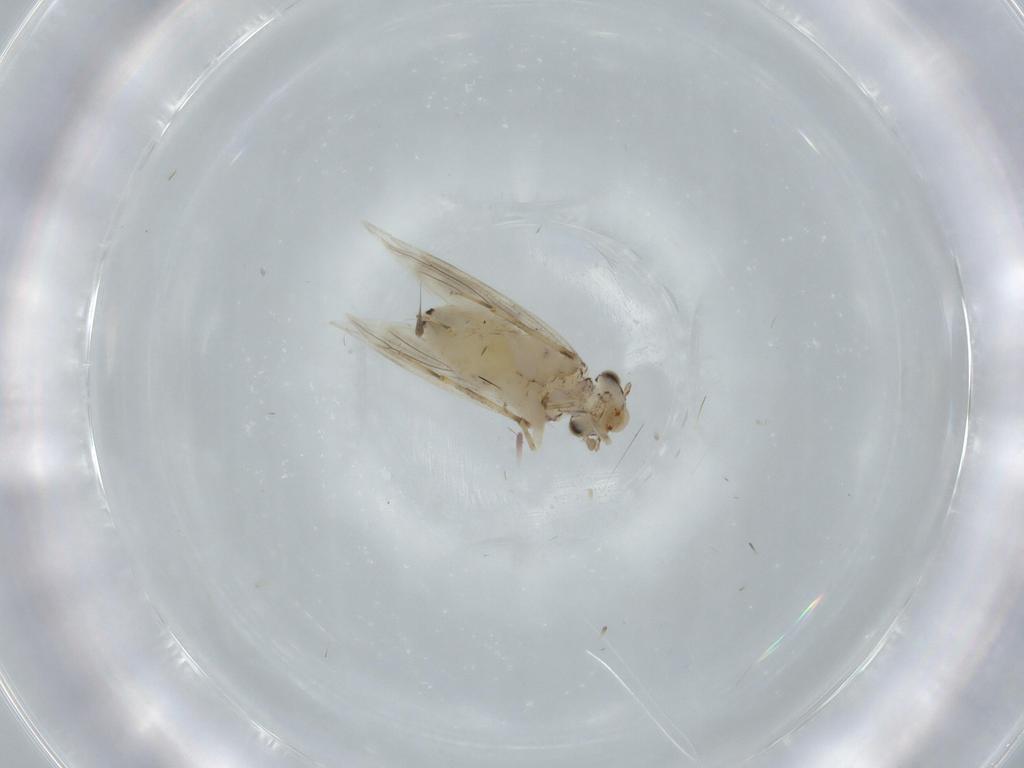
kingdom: Animalia
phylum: Arthropoda
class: Insecta
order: Psocodea
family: Lepidopsocidae
